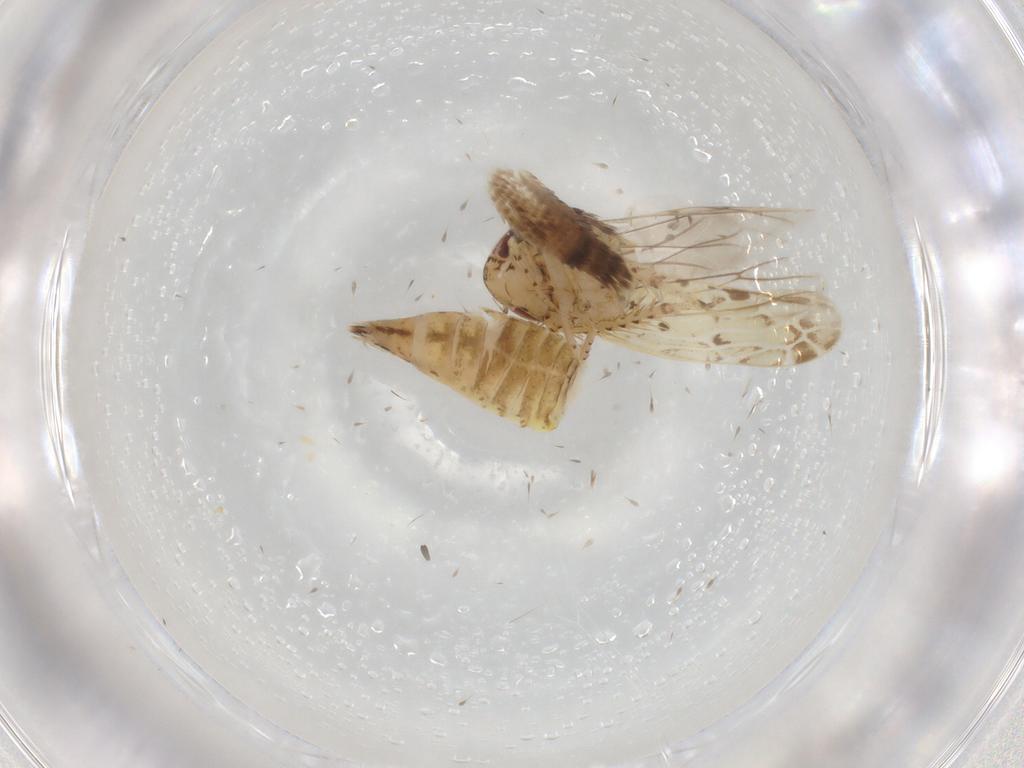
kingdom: Animalia
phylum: Arthropoda
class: Insecta
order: Hemiptera
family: Cicadellidae
